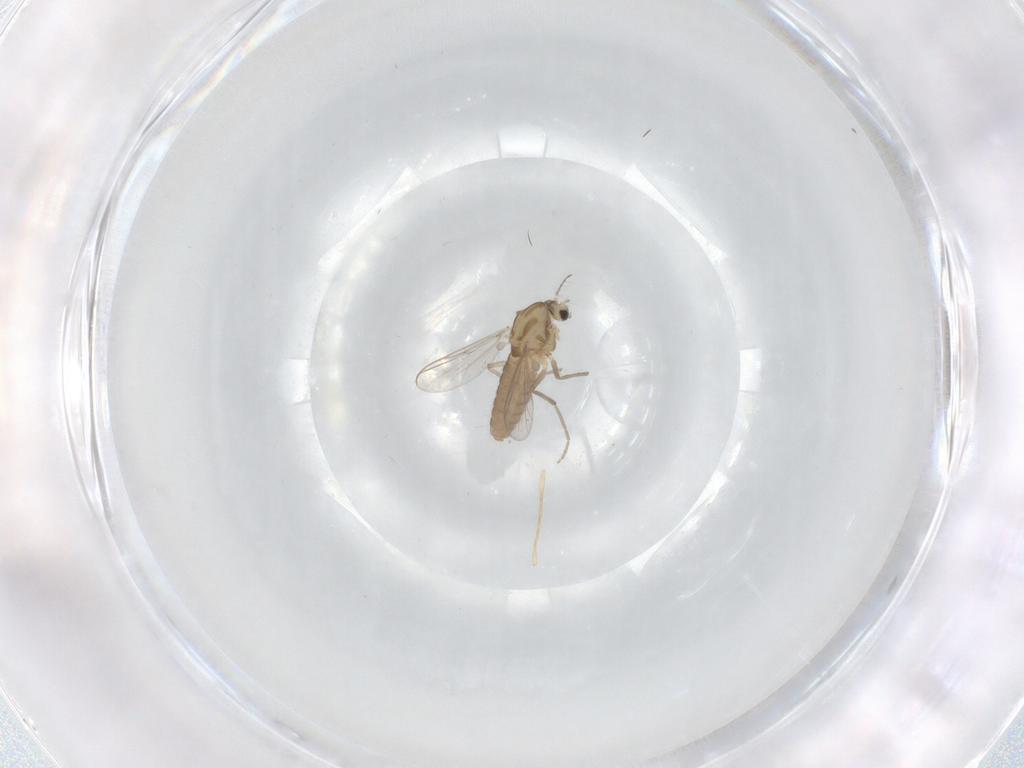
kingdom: Animalia
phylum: Arthropoda
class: Insecta
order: Diptera
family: Chironomidae
